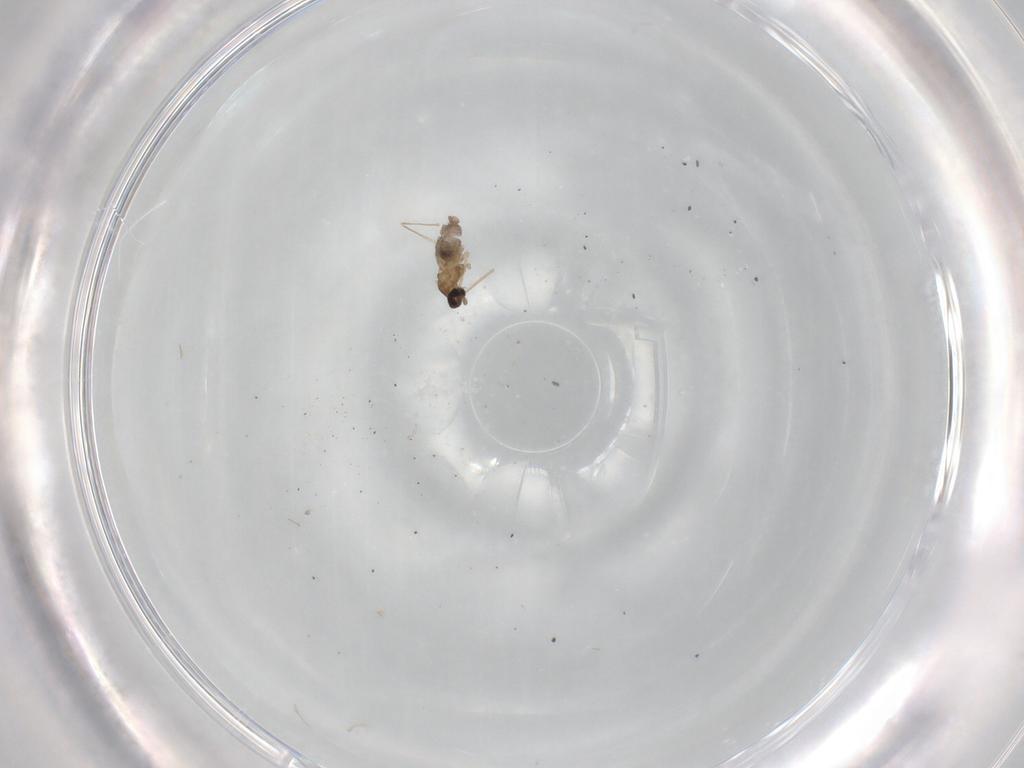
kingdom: Animalia
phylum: Arthropoda
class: Insecta
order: Diptera
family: Cecidomyiidae
